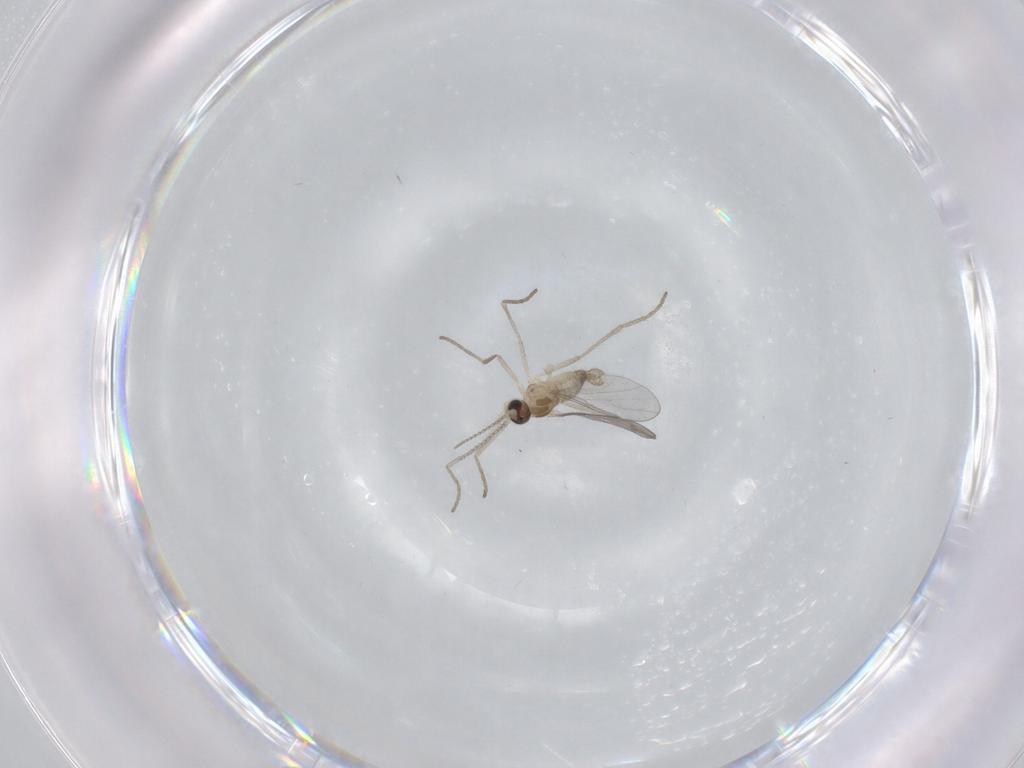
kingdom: Animalia
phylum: Arthropoda
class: Insecta
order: Diptera
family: Cecidomyiidae
